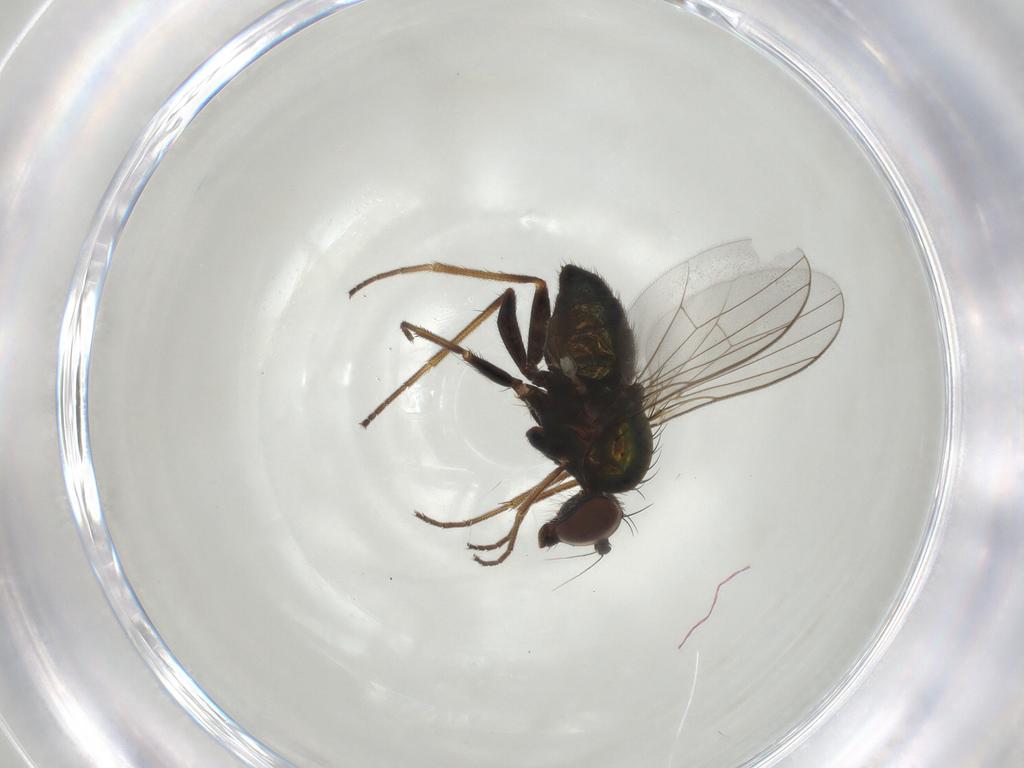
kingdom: Animalia
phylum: Arthropoda
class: Insecta
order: Diptera
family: Dolichopodidae
